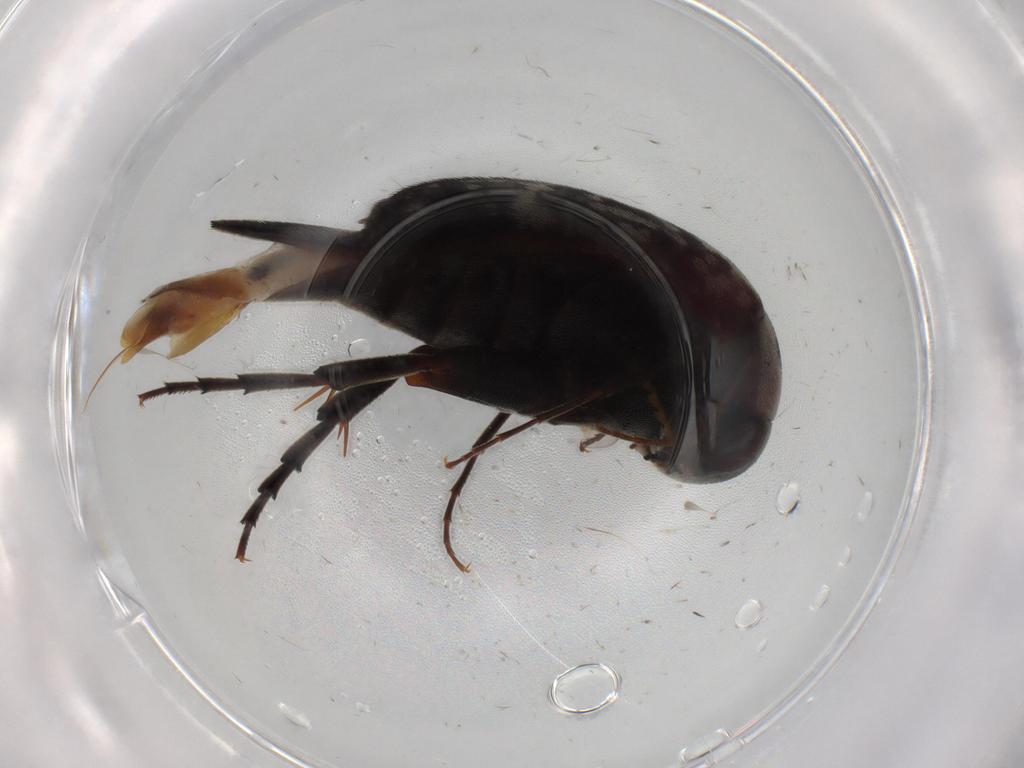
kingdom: Animalia
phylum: Arthropoda
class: Insecta
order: Coleoptera
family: Mordellidae
